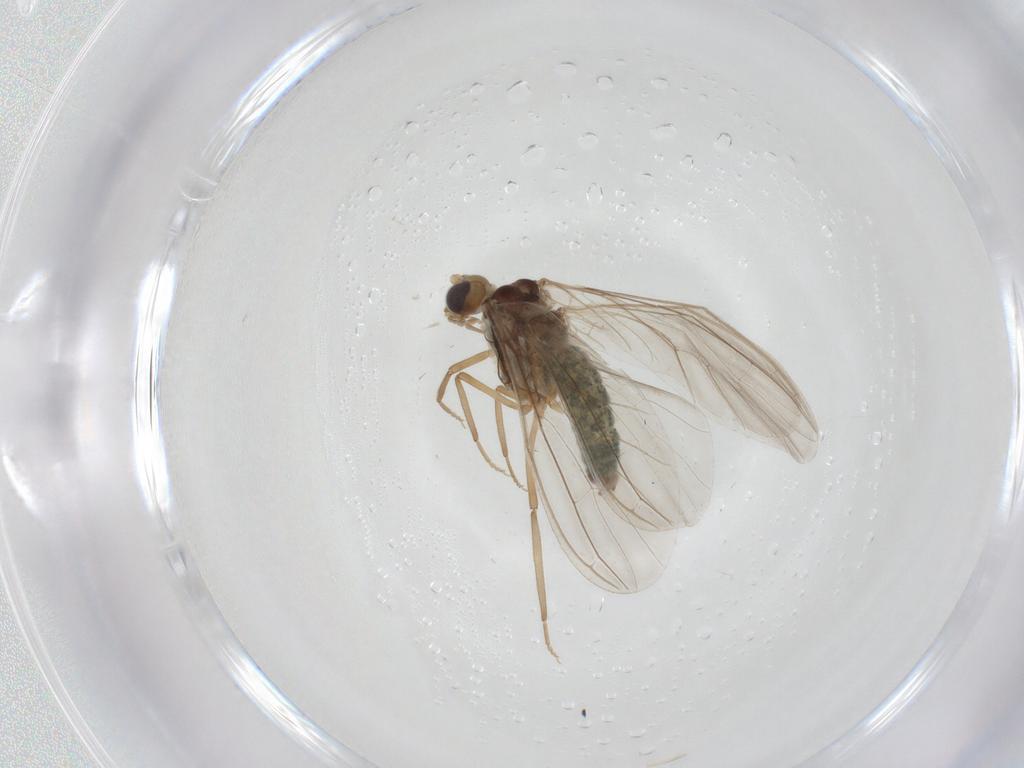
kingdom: Animalia
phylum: Arthropoda
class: Insecta
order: Neuroptera
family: Coniopterygidae
